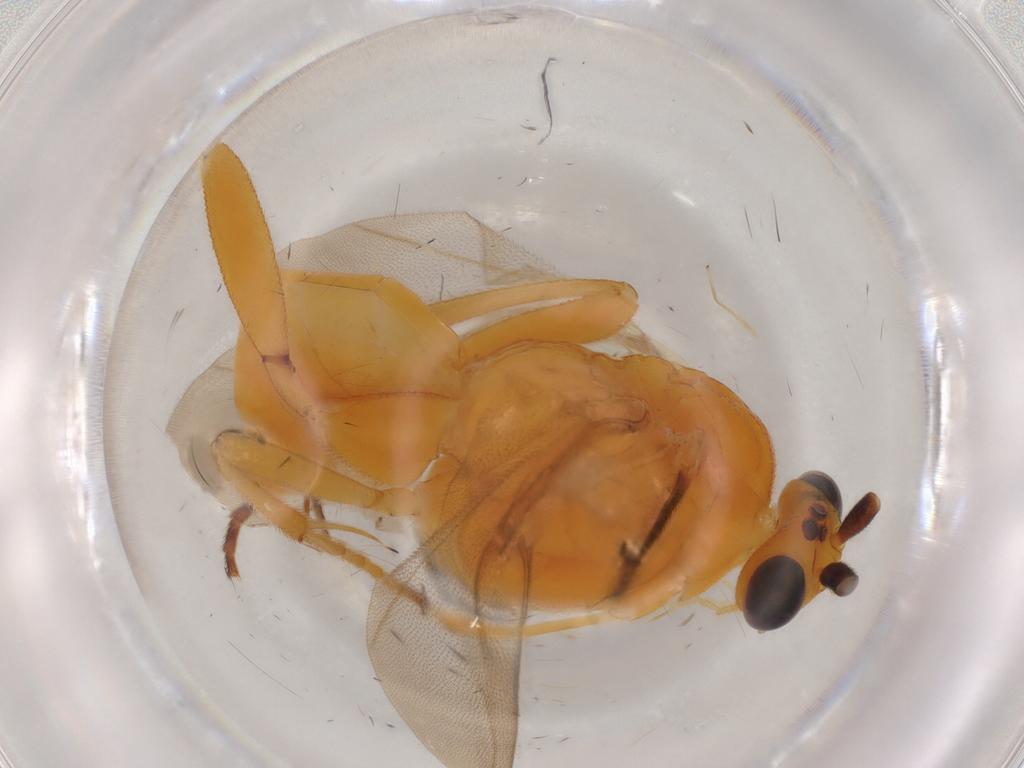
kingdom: Animalia
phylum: Arthropoda
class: Insecta
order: Hymenoptera
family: Formicidae
